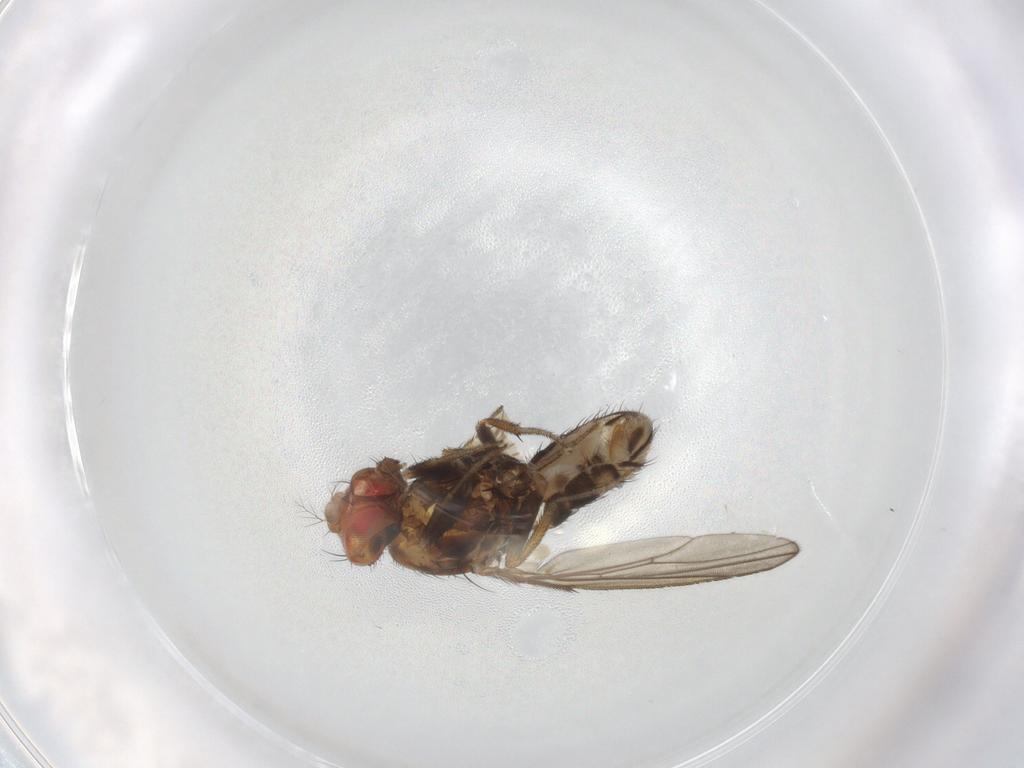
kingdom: Animalia
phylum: Arthropoda
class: Insecta
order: Diptera
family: Drosophilidae
